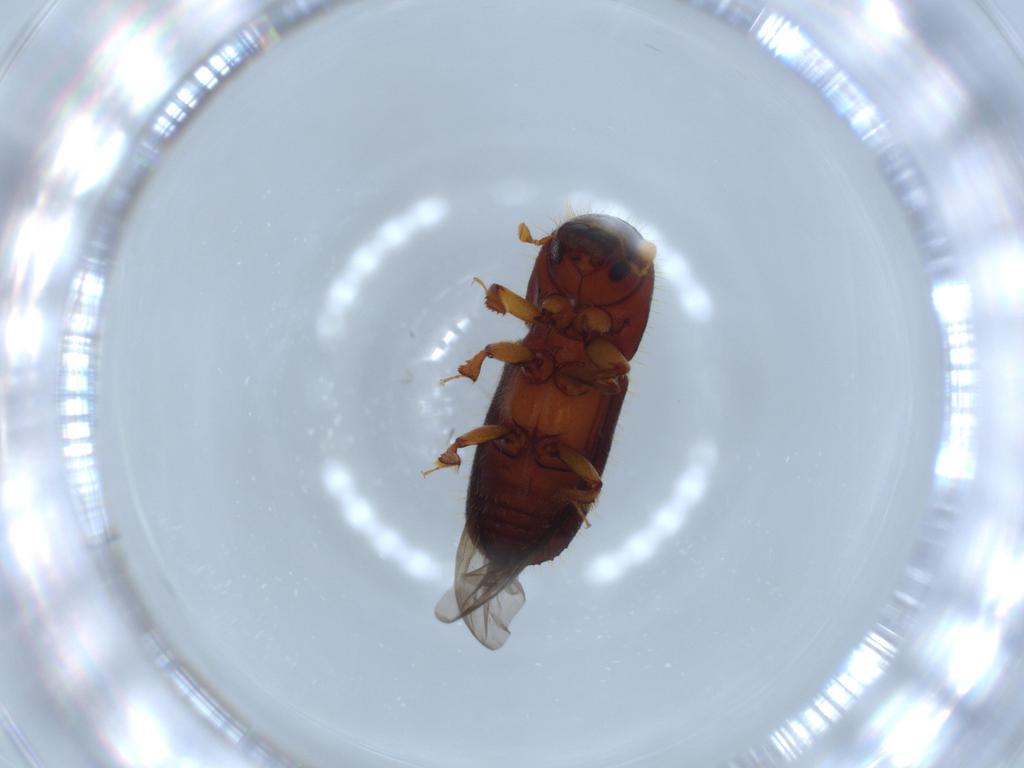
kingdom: Animalia
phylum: Arthropoda
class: Insecta
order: Coleoptera
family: Curculionidae
